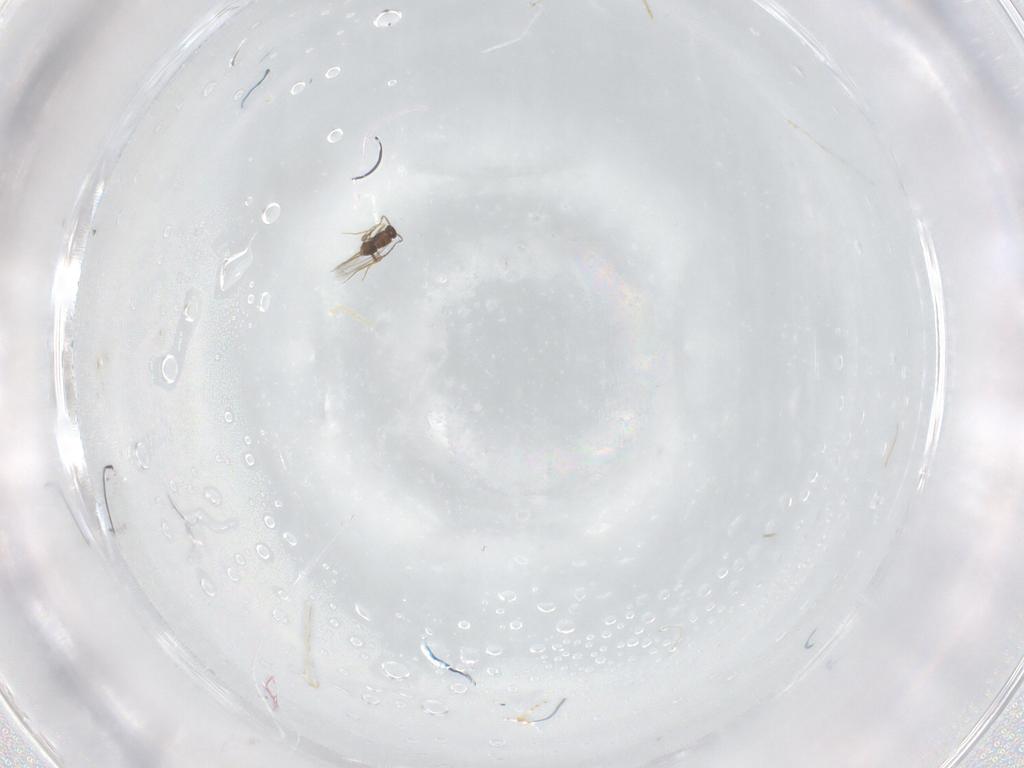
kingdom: Animalia
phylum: Arthropoda
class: Insecta
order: Hymenoptera
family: Mymaridae
